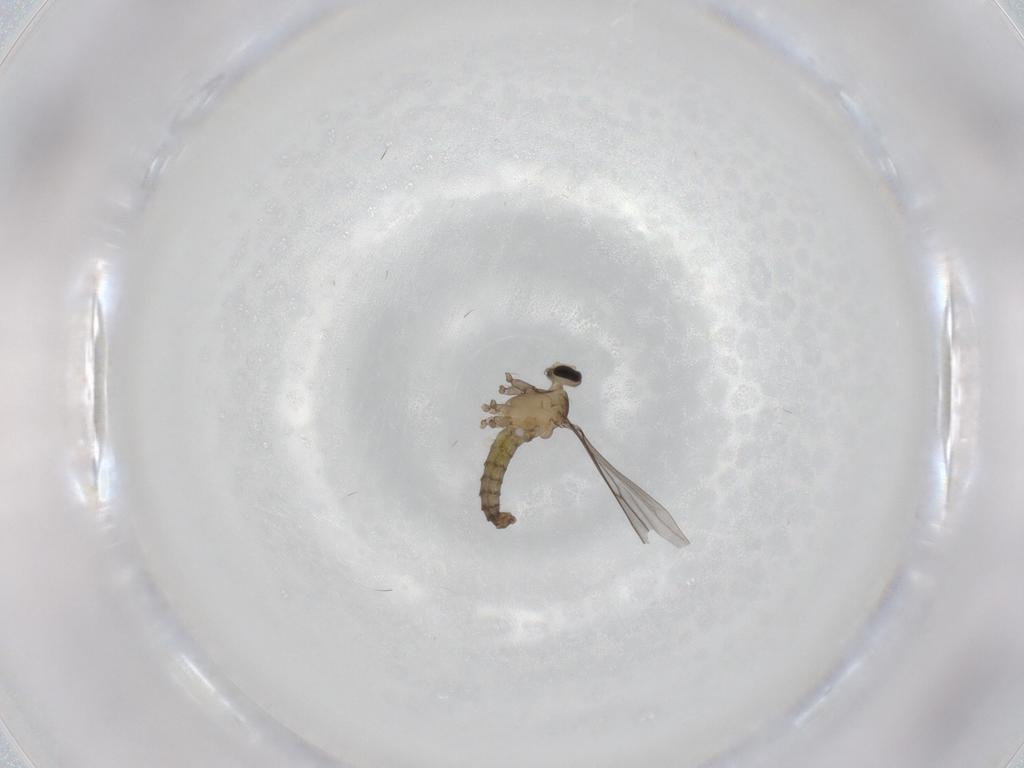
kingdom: Animalia
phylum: Arthropoda
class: Insecta
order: Diptera
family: Cecidomyiidae
